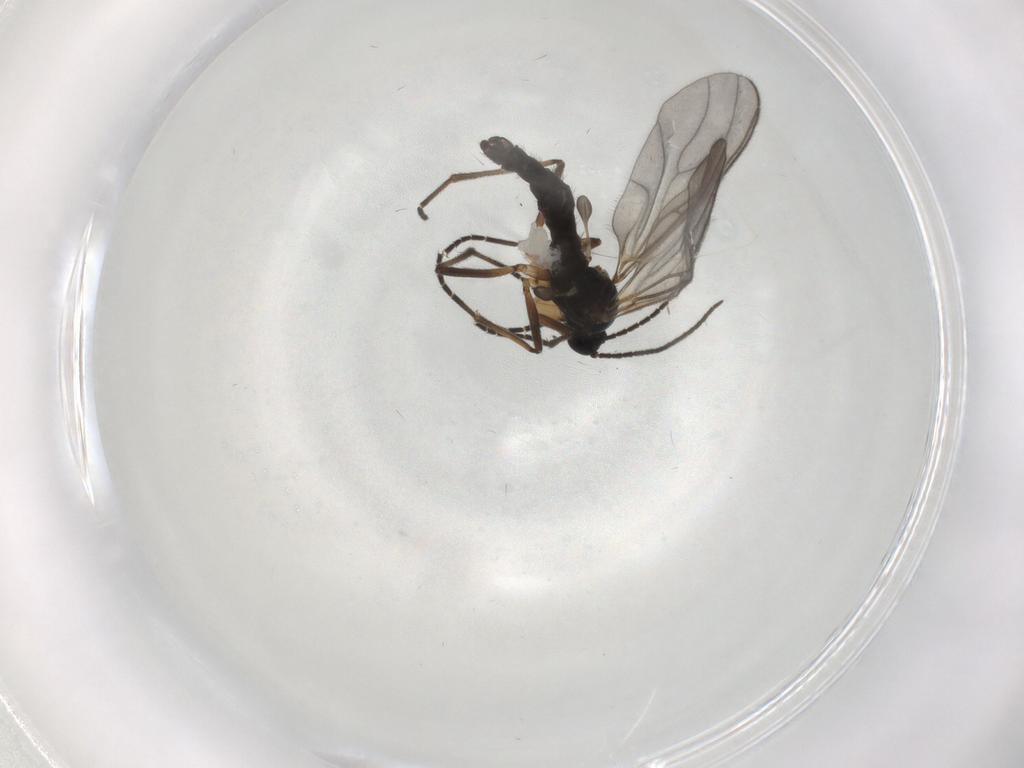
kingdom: Animalia
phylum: Arthropoda
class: Insecta
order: Diptera
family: Sciaridae
